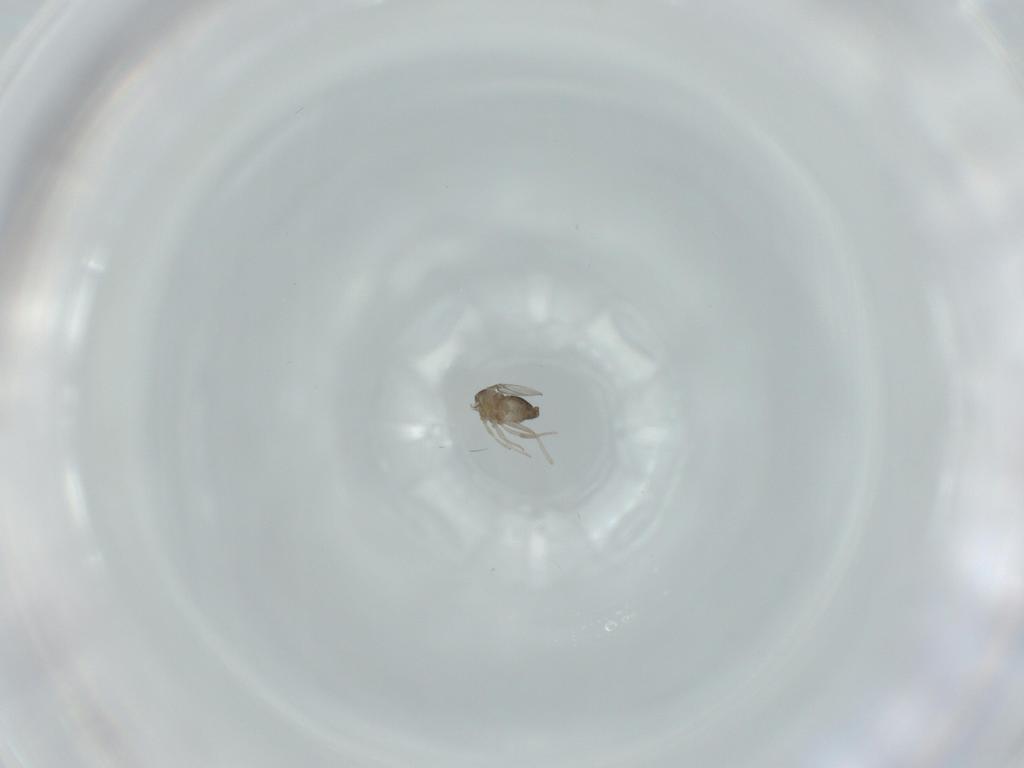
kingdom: Animalia
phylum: Arthropoda
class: Insecta
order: Diptera
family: Cecidomyiidae
